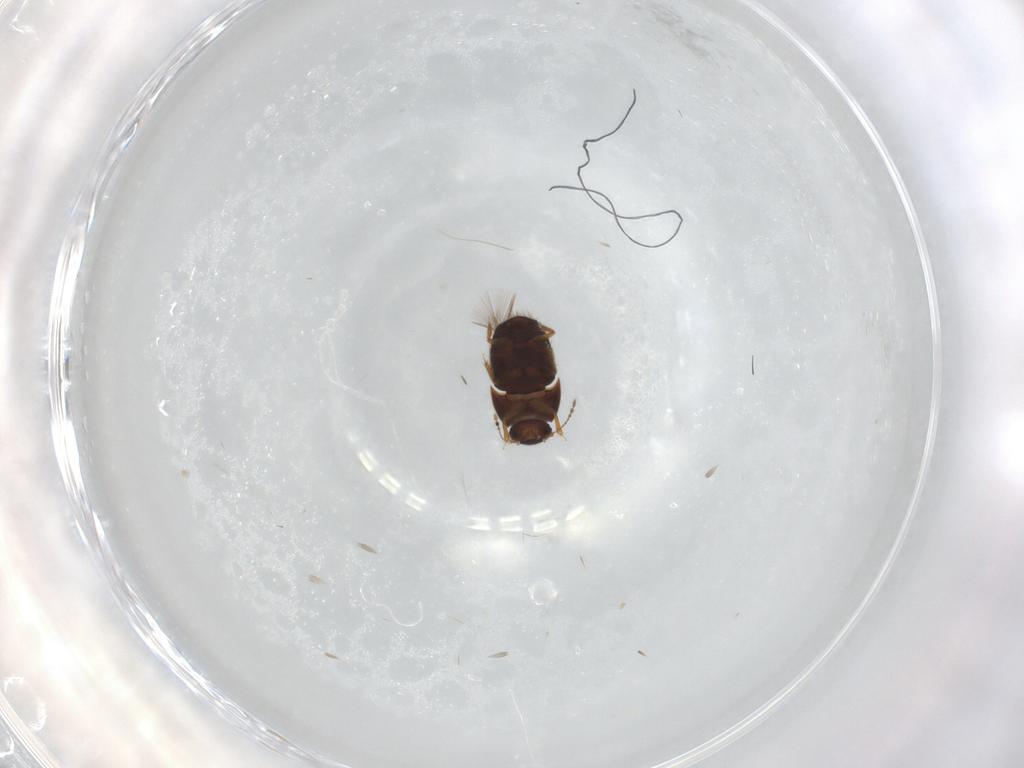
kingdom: Animalia
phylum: Arthropoda
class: Insecta
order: Coleoptera
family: Staphylinidae
